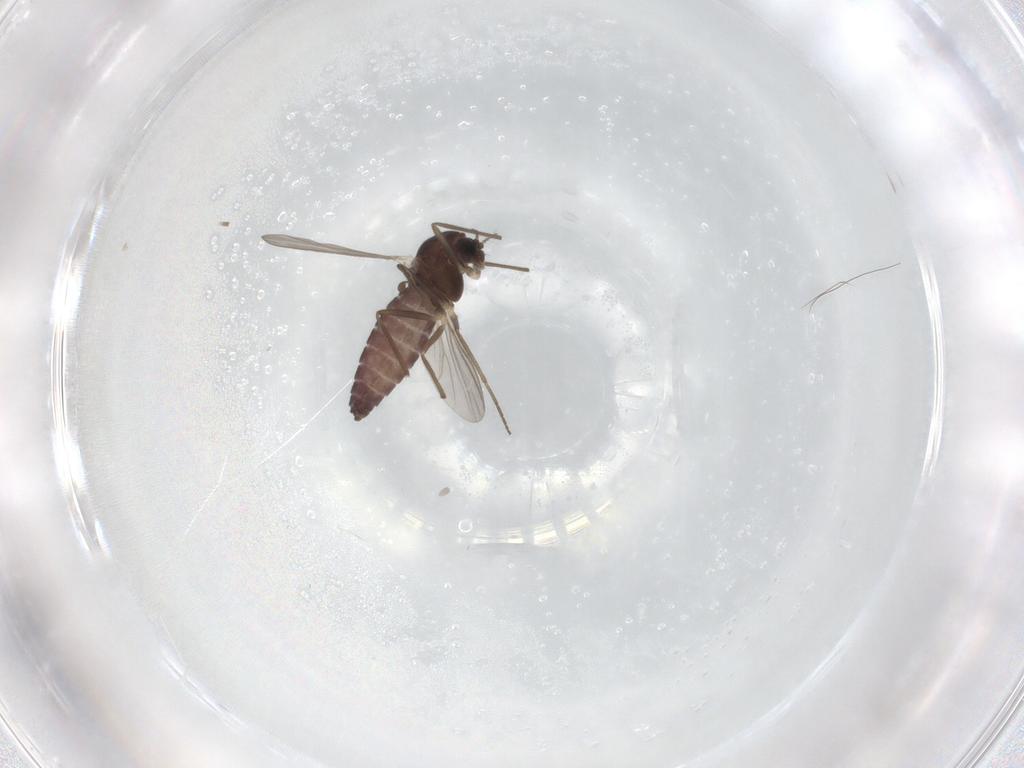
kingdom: Animalia
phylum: Arthropoda
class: Insecta
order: Diptera
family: Chironomidae
